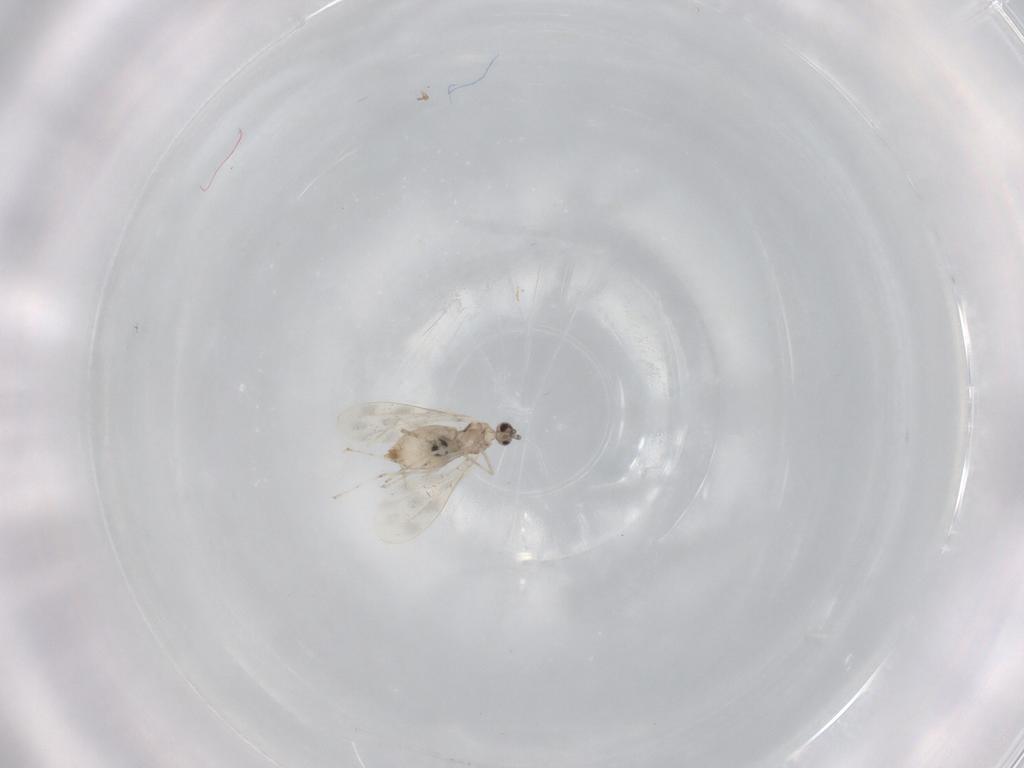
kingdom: Animalia
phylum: Arthropoda
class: Insecta
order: Diptera
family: Cecidomyiidae
